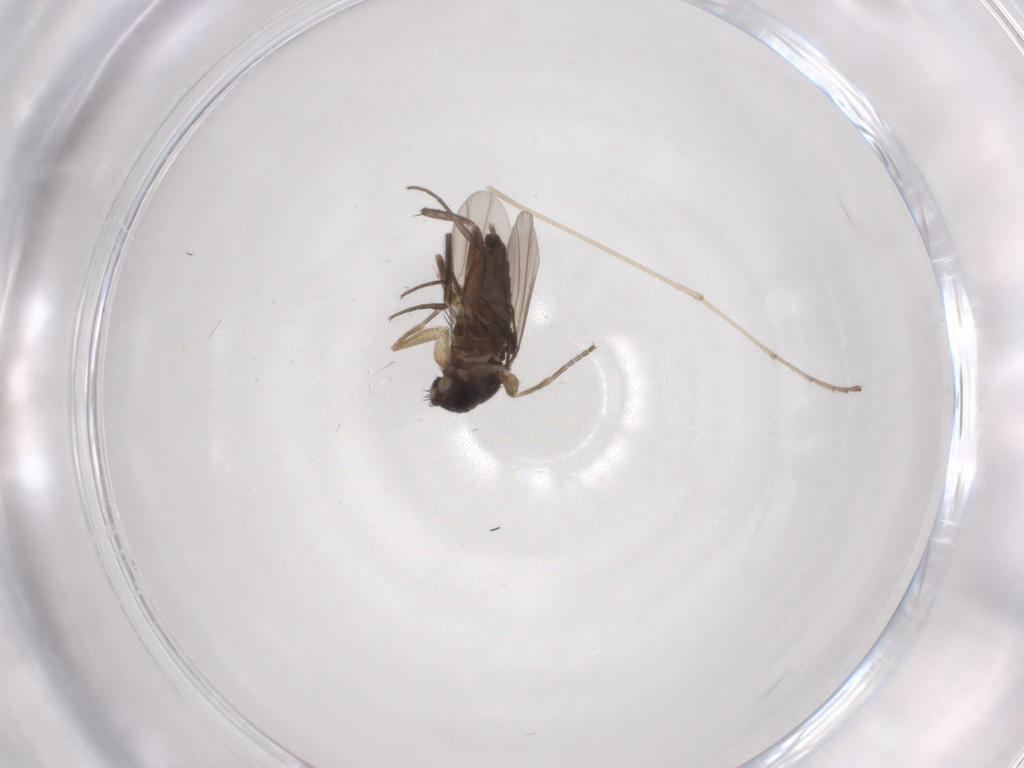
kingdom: Animalia
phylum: Arthropoda
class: Insecta
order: Diptera
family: Phoridae
